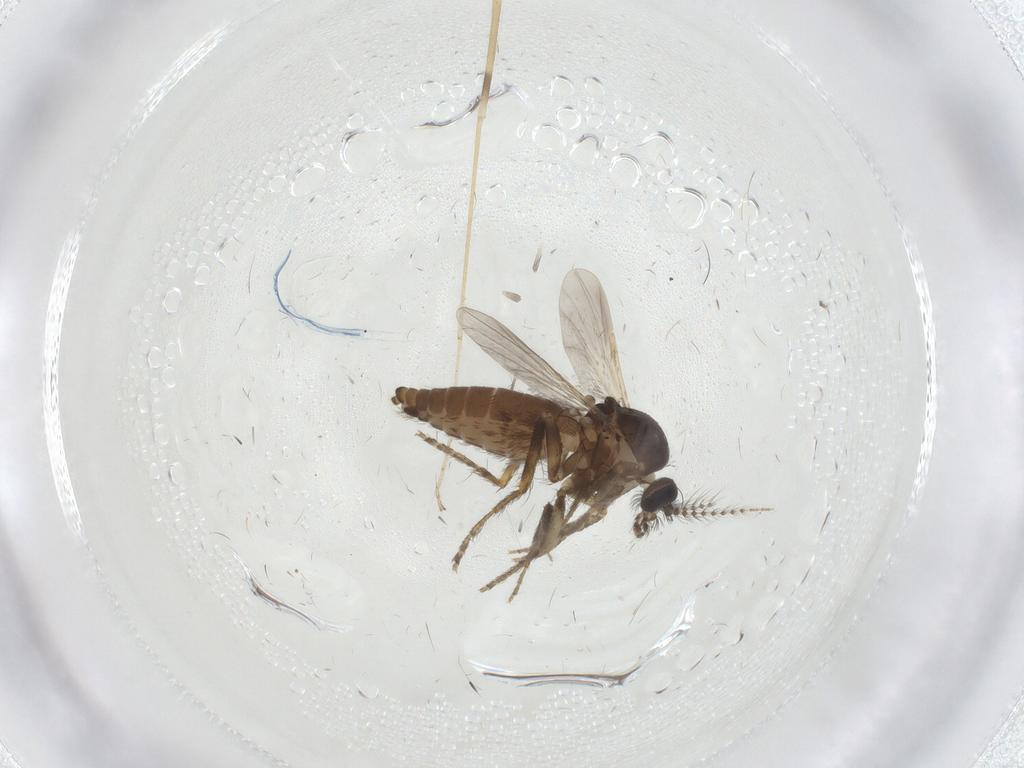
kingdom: Animalia
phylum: Arthropoda
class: Insecta
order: Diptera
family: Ceratopogonidae
